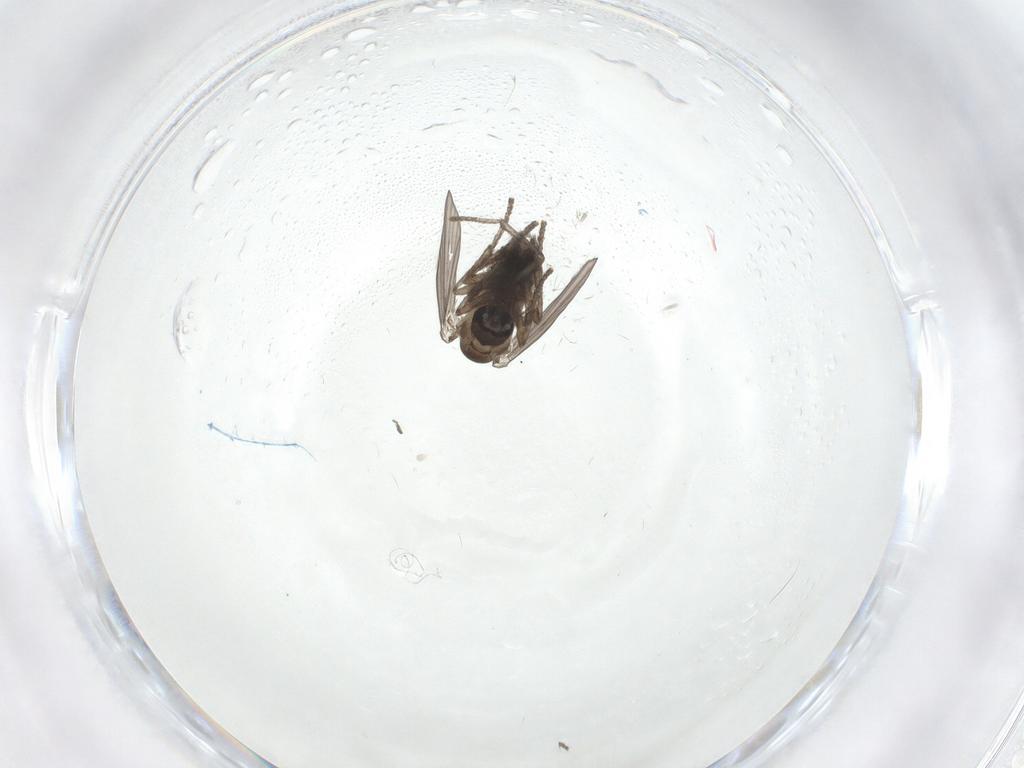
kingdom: Animalia
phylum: Arthropoda
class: Insecta
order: Diptera
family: Psychodidae
